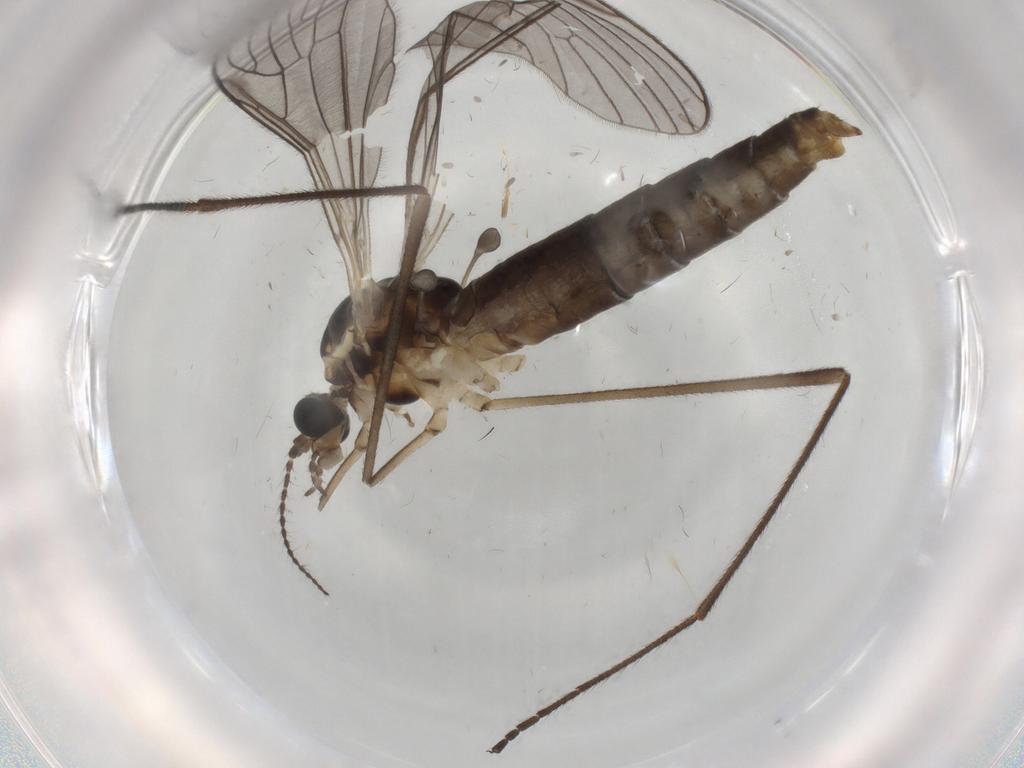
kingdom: Animalia
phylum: Arthropoda
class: Insecta
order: Diptera
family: Limoniidae
